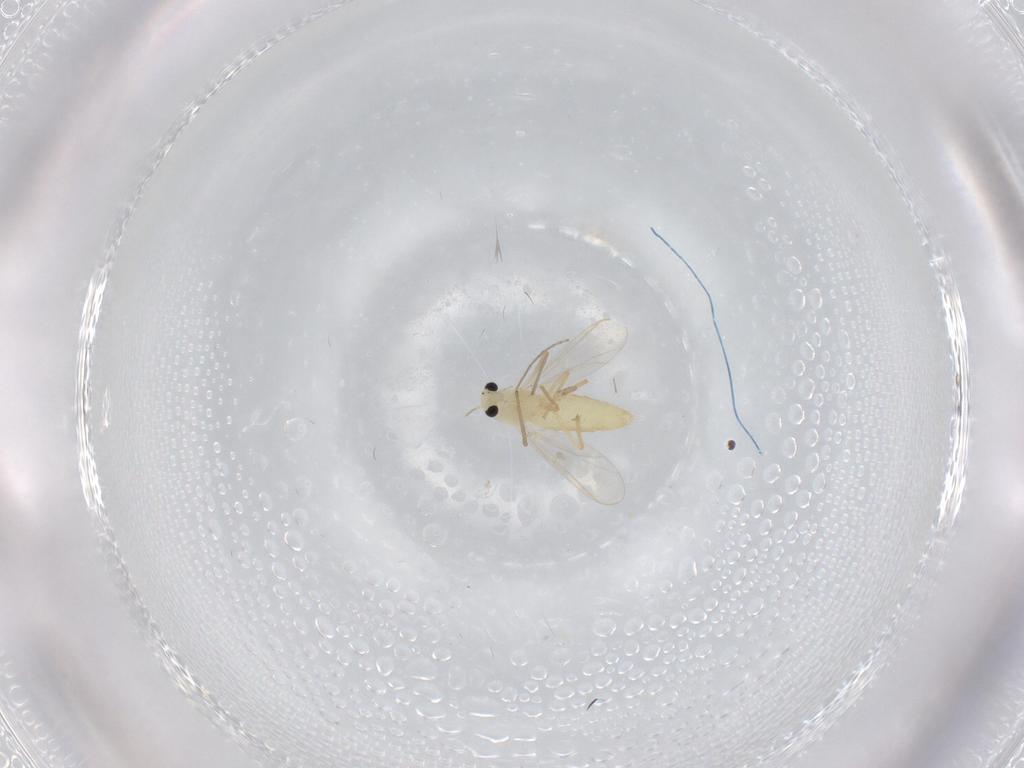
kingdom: Animalia
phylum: Arthropoda
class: Insecta
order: Diptera
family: Chironomidae
